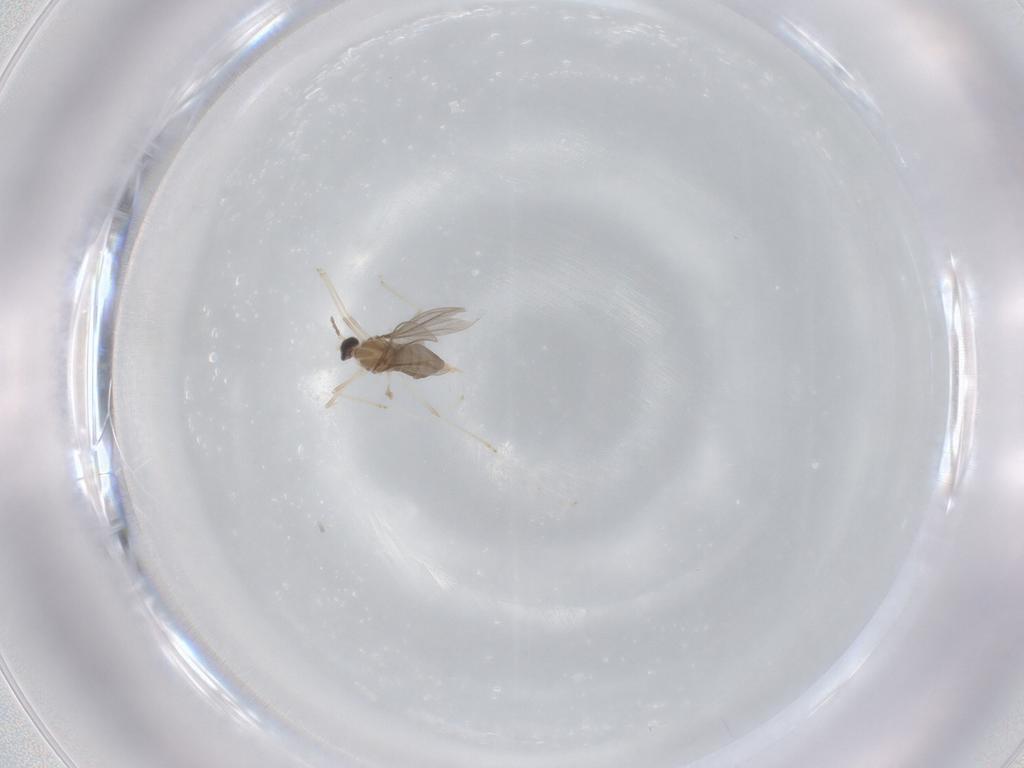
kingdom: Animalia
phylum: Arthropoda
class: Insecta
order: Diptera
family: Cecidomyiidae
